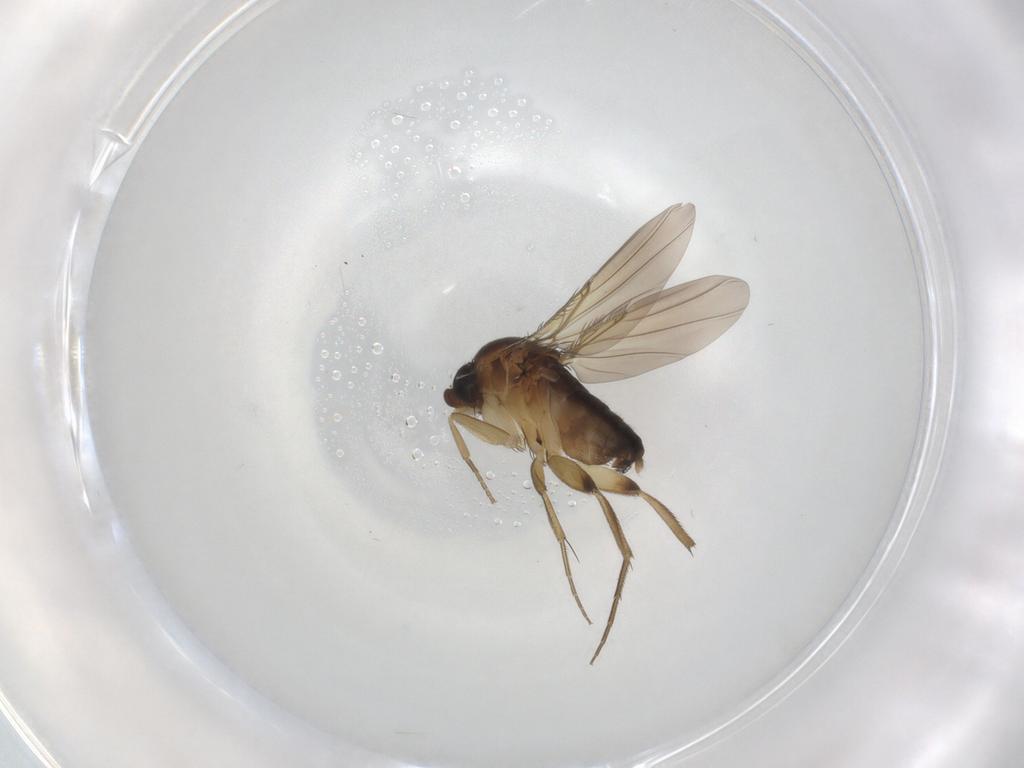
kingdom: Animalia
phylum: Arthropoda
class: Insecta
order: Diptera
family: Phoridae
